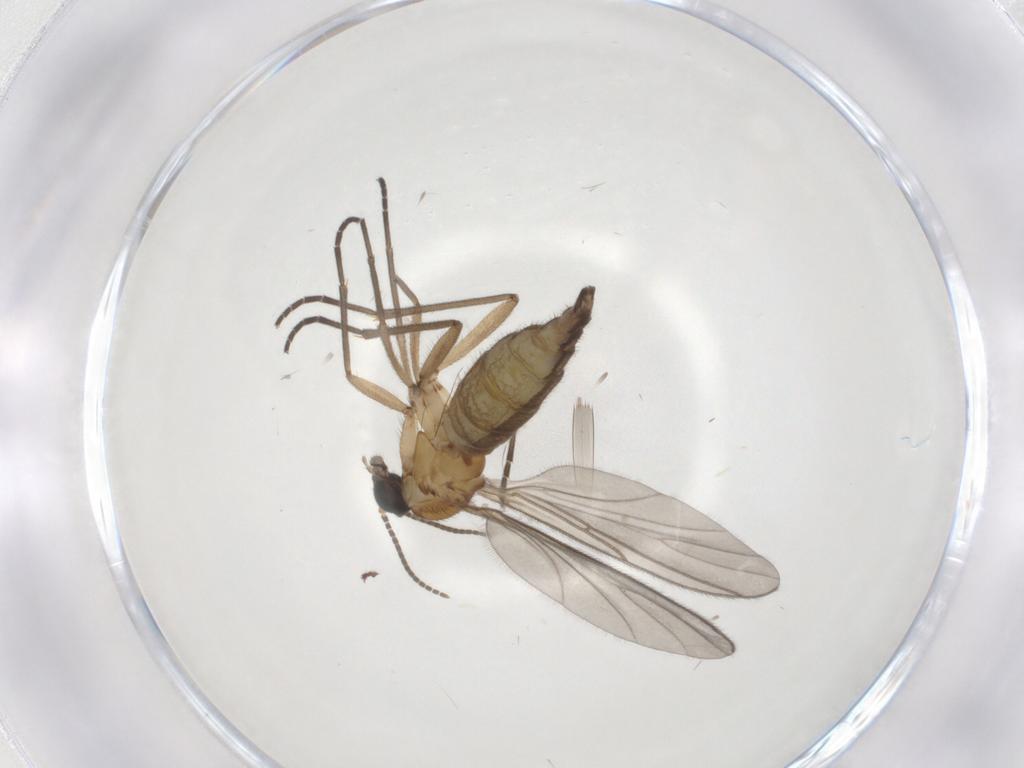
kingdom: Animalia
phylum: Arthropoda
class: Insecta
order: Diptera
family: Sciaridae
